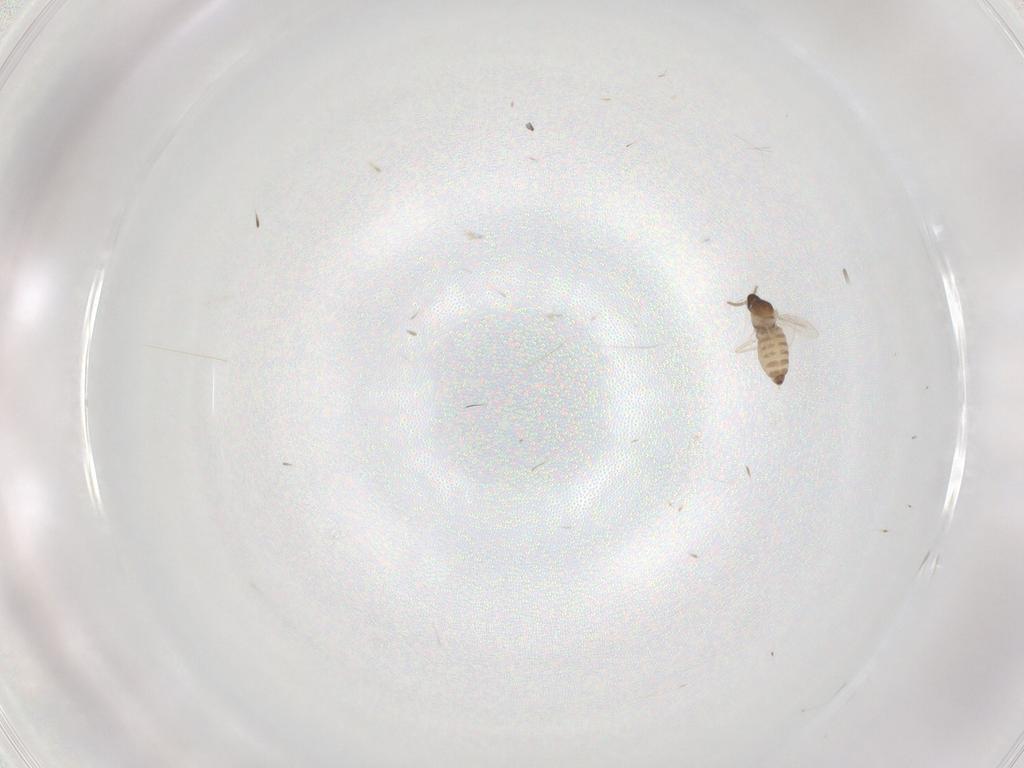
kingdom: Animalia
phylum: Arthropoda
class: Insecta
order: Diptera
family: Cecidomyiidae
